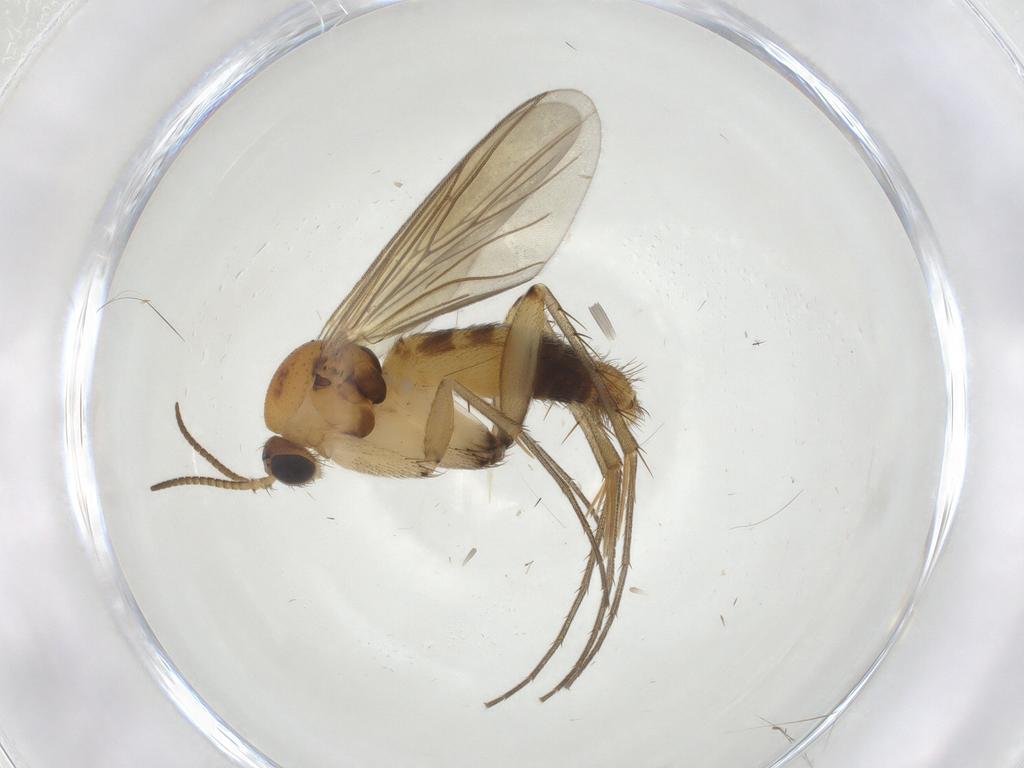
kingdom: Animalia
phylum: Arthropoda
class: Insecta
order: Diptera
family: Mycetophilidae
